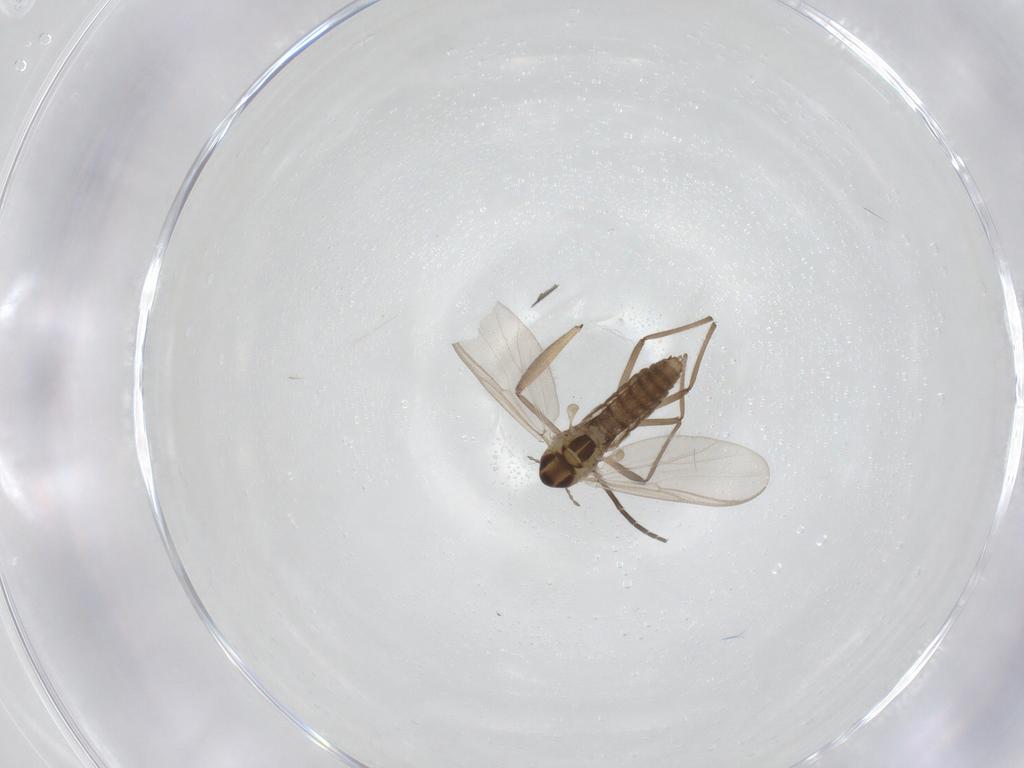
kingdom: Animalia
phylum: Arthropoda
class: Insecta
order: Diptera
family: Chironomidae
